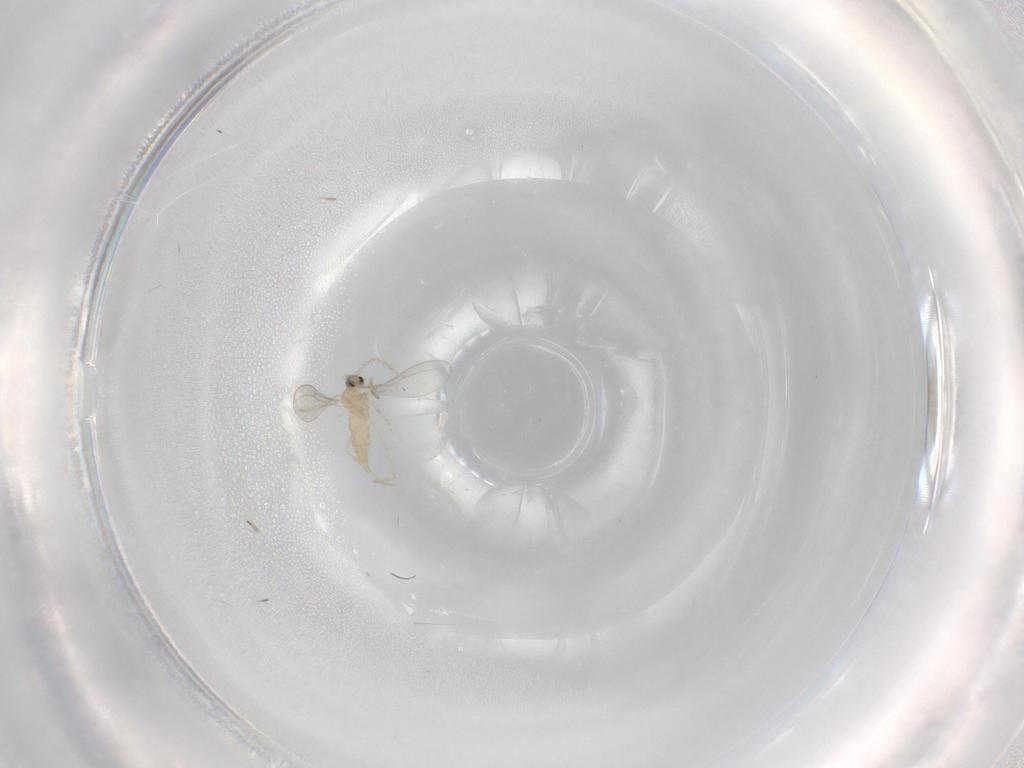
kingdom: Animalia
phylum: Arthropoda
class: Insecta
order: Diptera
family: Cecidomyiidae
